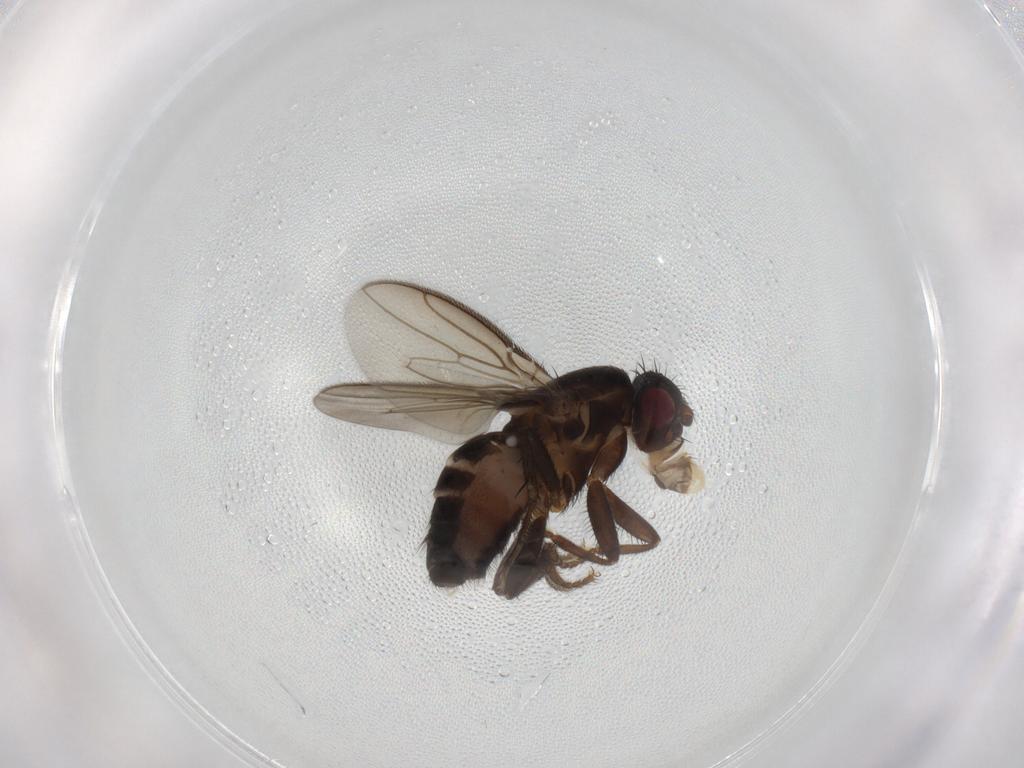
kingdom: Animalia
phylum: Arthropoda
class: Insecta
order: Diptera
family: Sphaeroceridae
